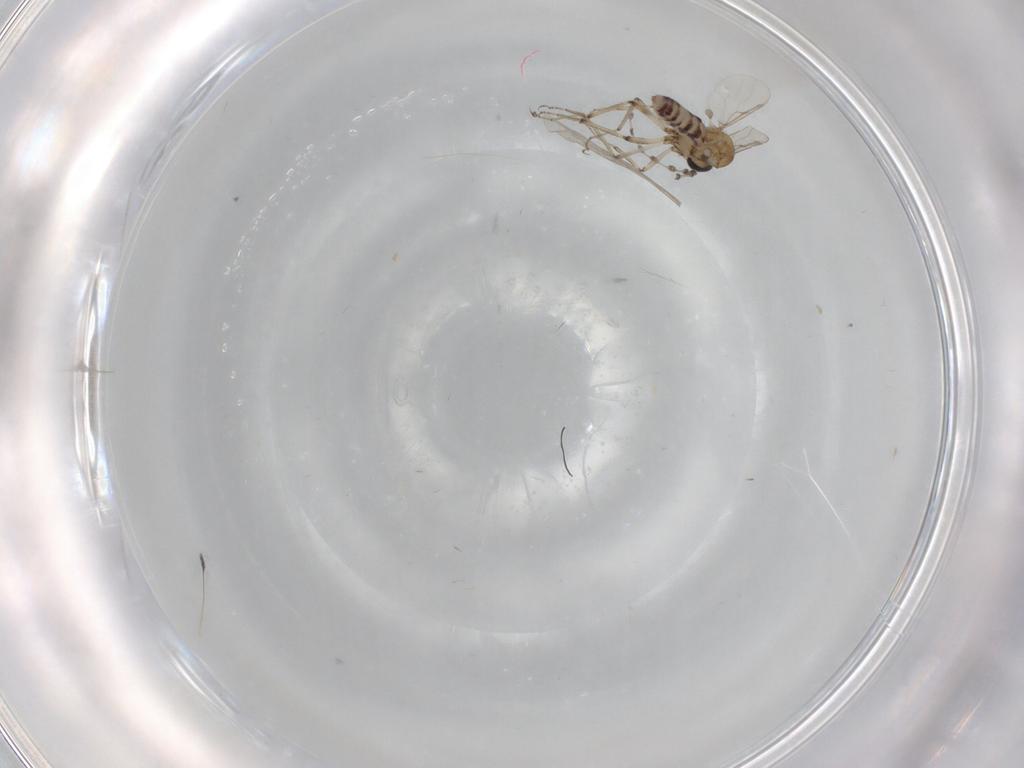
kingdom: Animalia
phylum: Arthropoda
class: Insecta
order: Diptera
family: Ceratopogonidae
